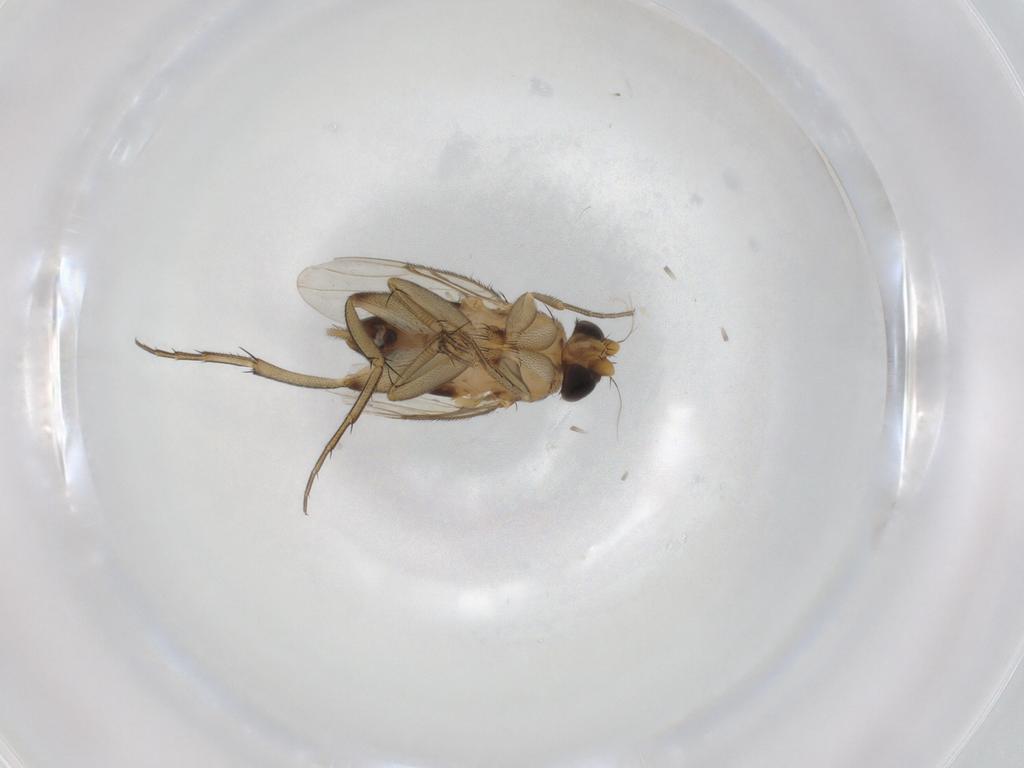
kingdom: Animalia
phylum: Arthropoda
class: Insecta
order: Diptera
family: Phoridae
